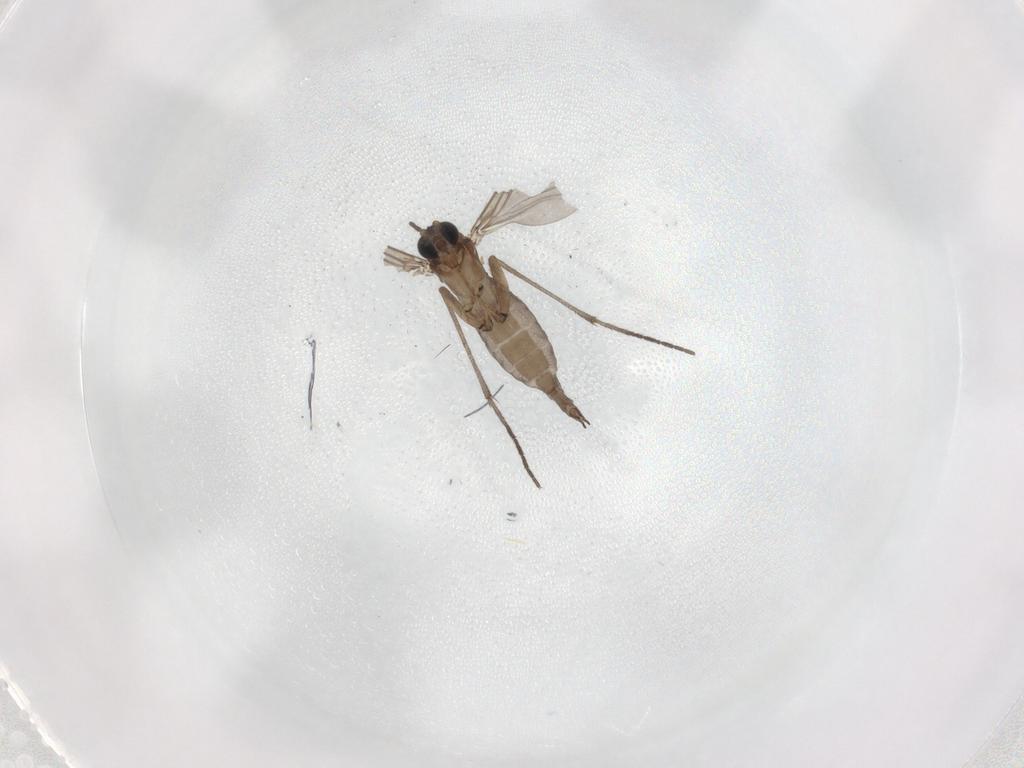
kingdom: Animalia
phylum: Arthropoda
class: Insecta
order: Diptera
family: Sciaridae
